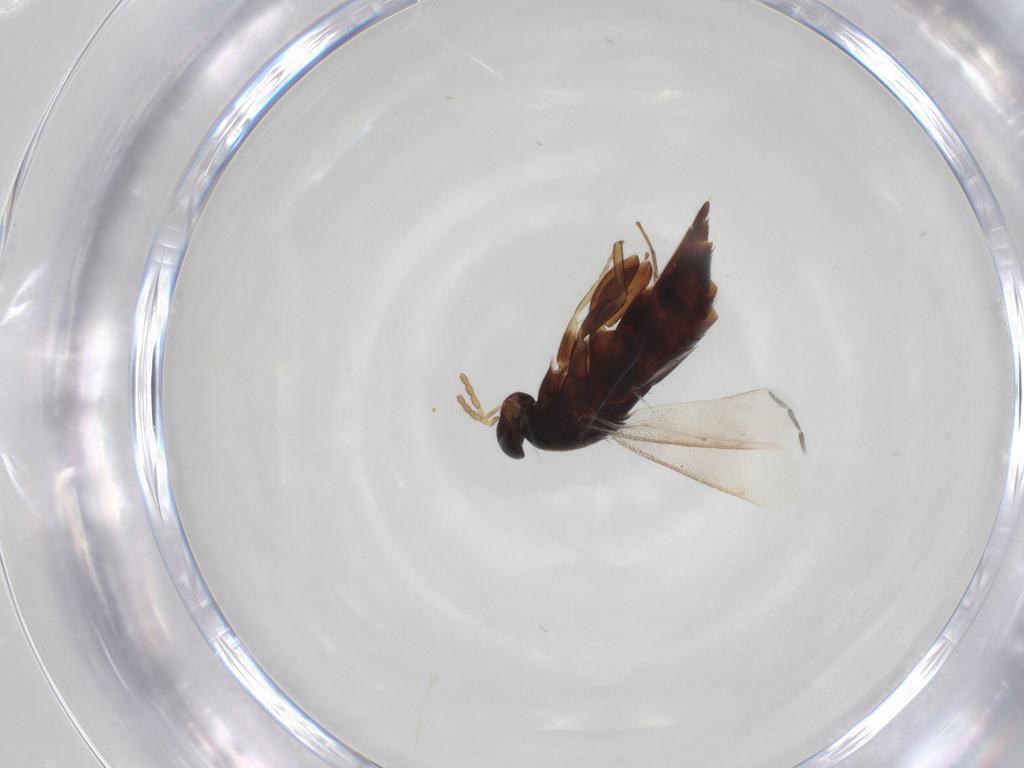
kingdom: Animalia
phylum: Arthropoda
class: Insecta
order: Hymenoptera
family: Eulophidae
